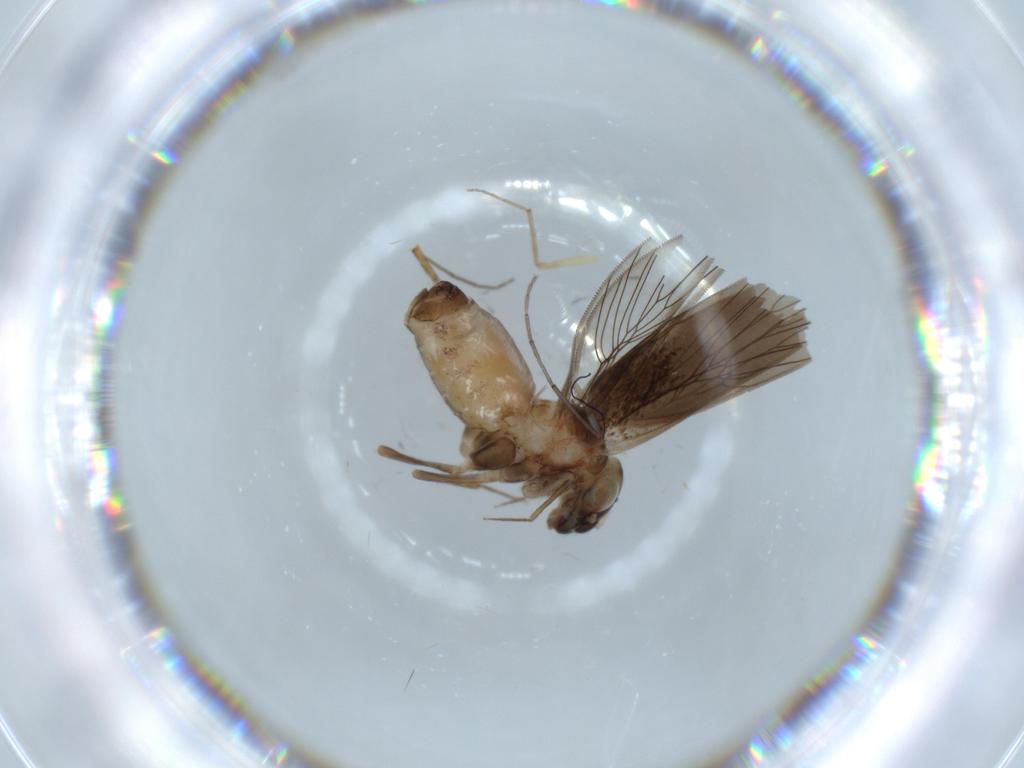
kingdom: Animalia
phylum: Arthropoda
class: Insecta
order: Psocodea
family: Lepidopsocidae
